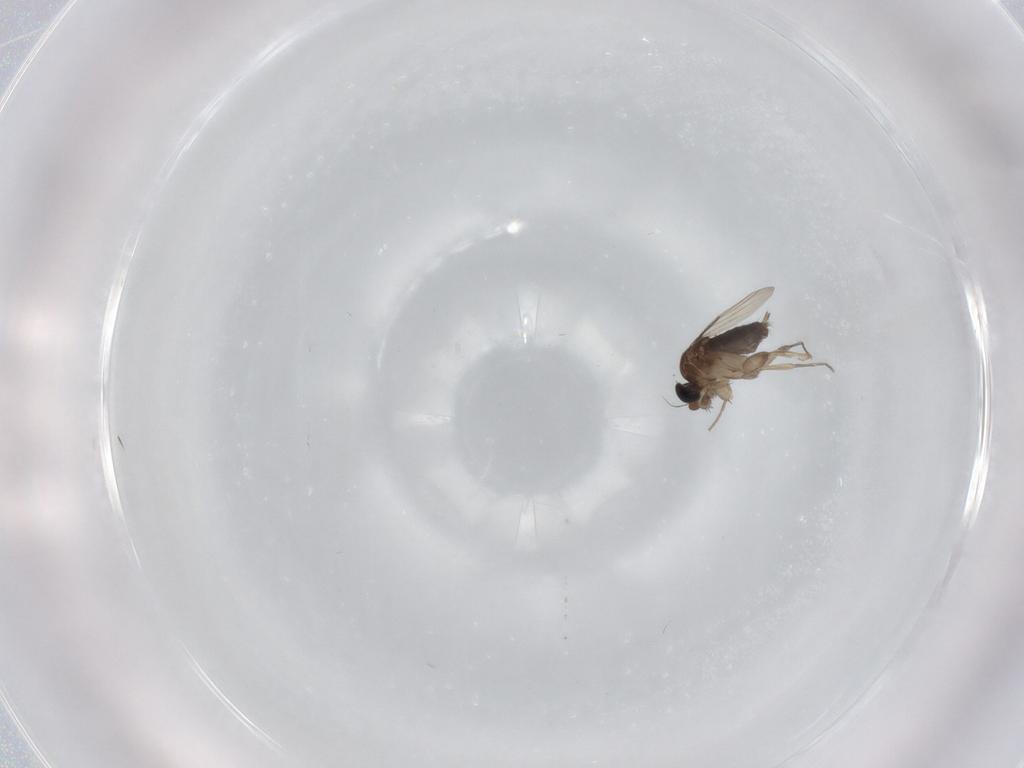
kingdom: Animalia
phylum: Arthropoda
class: Insecta
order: Diptera
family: Phoridae
